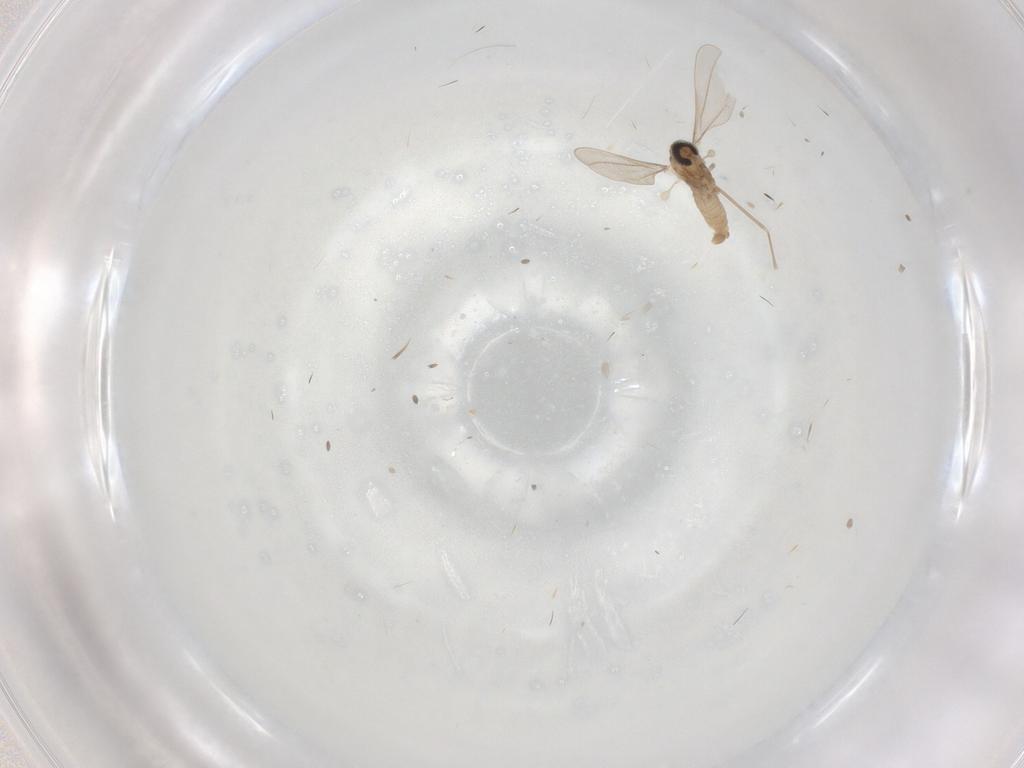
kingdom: Animalia
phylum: Arthropoda
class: Insecta
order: Diptera
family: Cecidomyiidae
